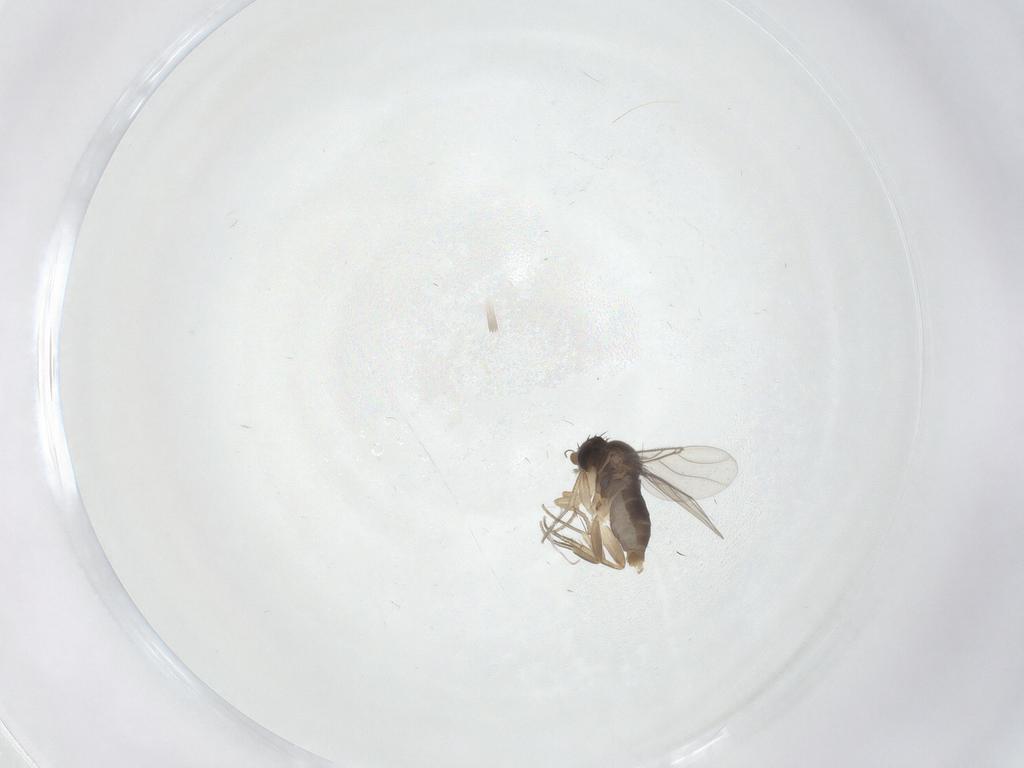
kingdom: Animalia
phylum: Arthropoda
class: Insecta
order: Diptera
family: Phoridae
